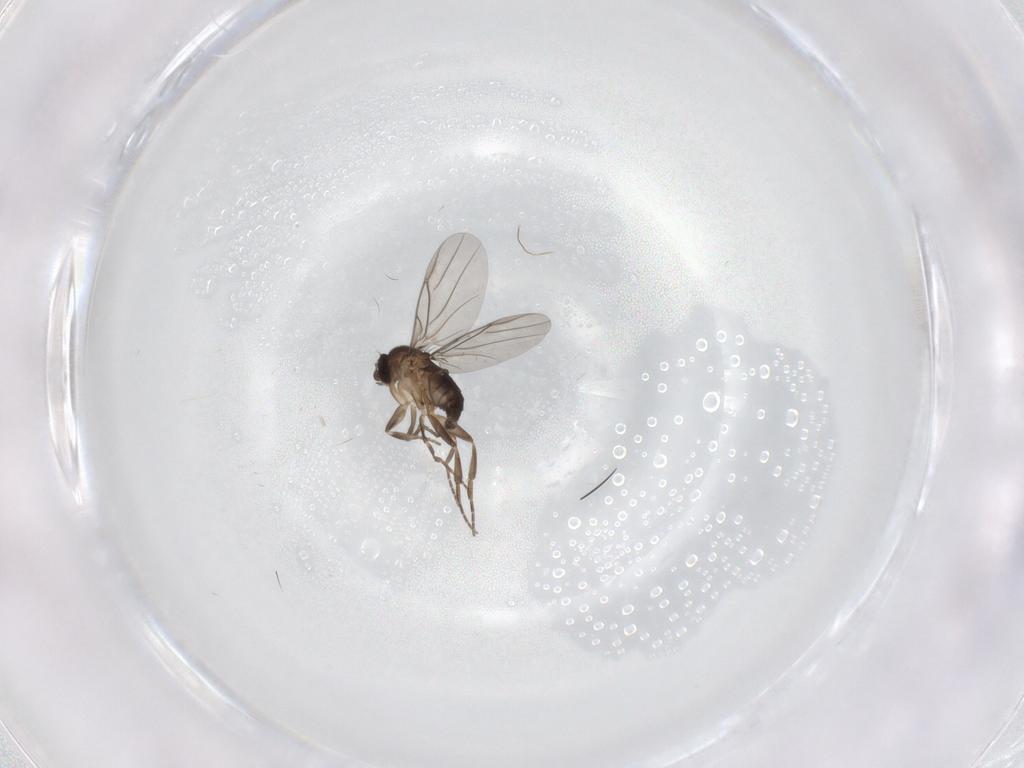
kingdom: Animalia
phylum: Arthropoda
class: Insecta
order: Diptera
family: Phoridae
